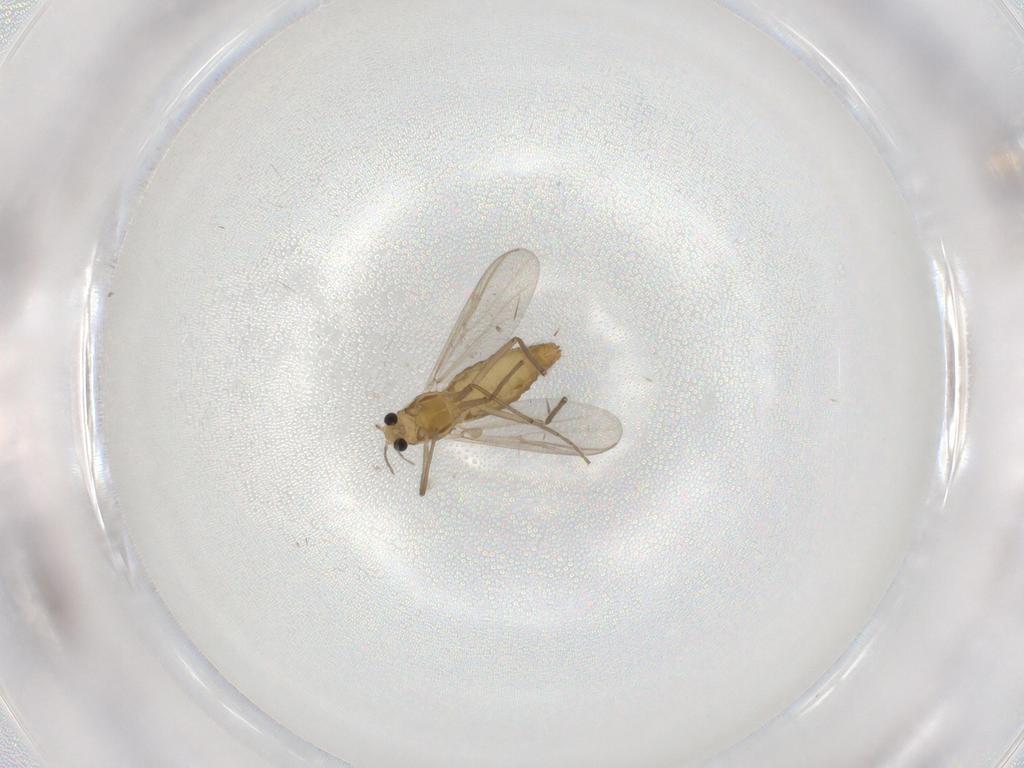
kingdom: Animalia
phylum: Arthropoda
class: Insecta
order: Diptera
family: Chironomidae
